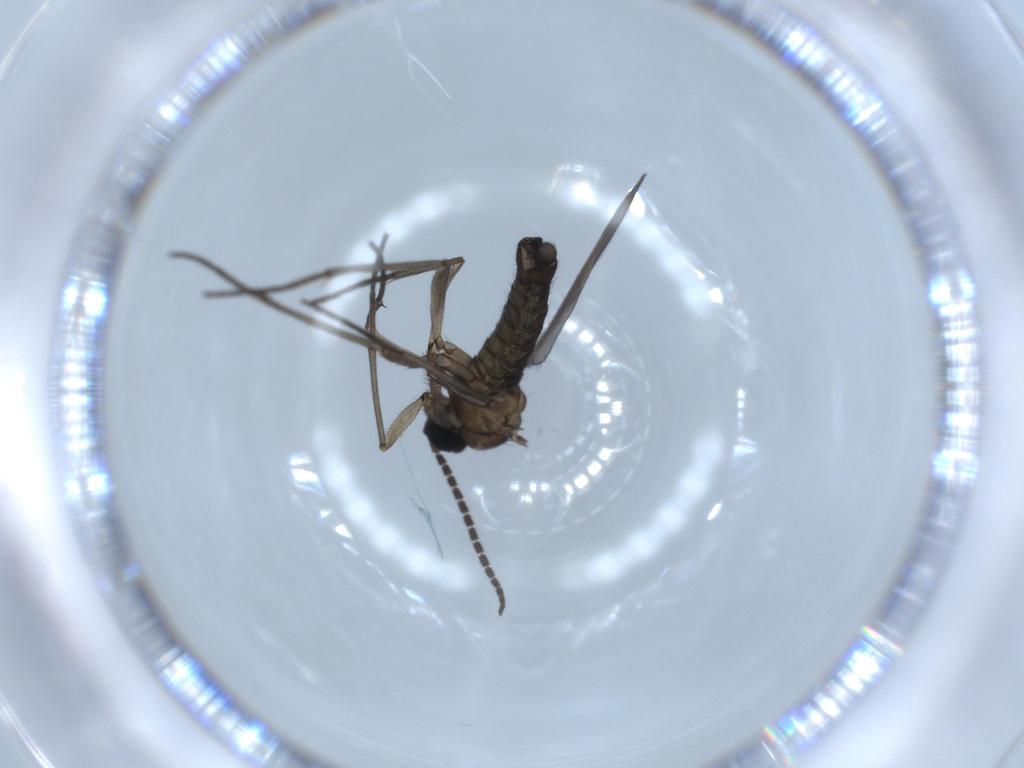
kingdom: Animalia
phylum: Arthropoda
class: Insecta
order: Diptera
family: Sciaridae
